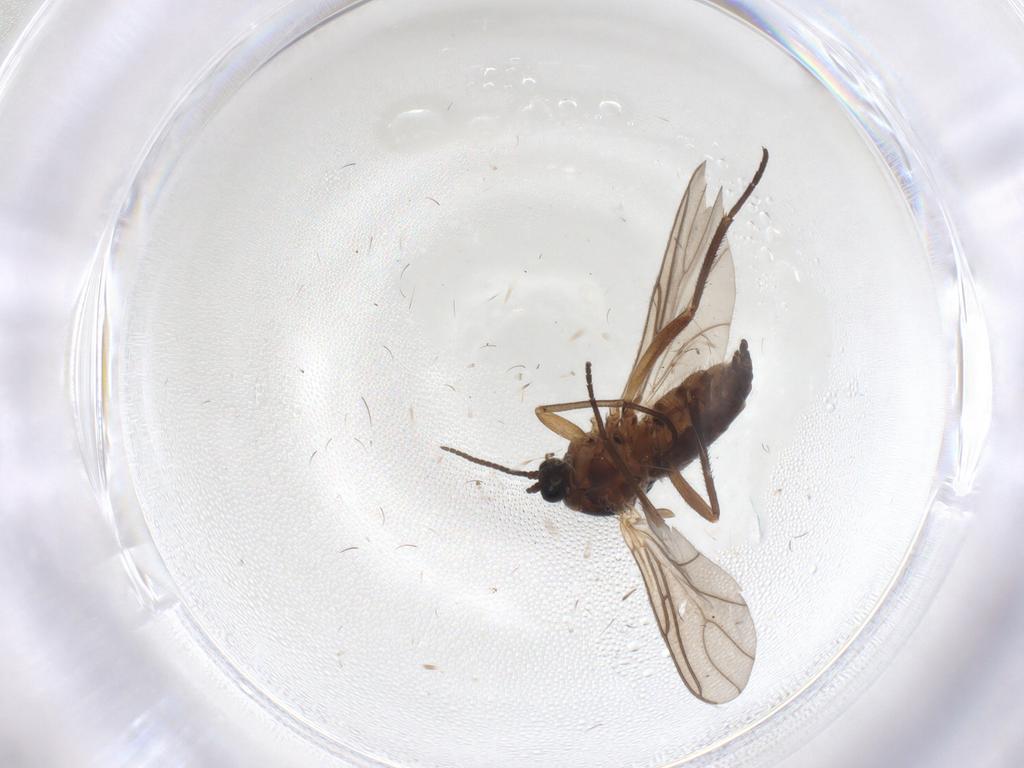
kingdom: Animalia
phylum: Arthropoda
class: Insecta
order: Diptera
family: Sciaridae
